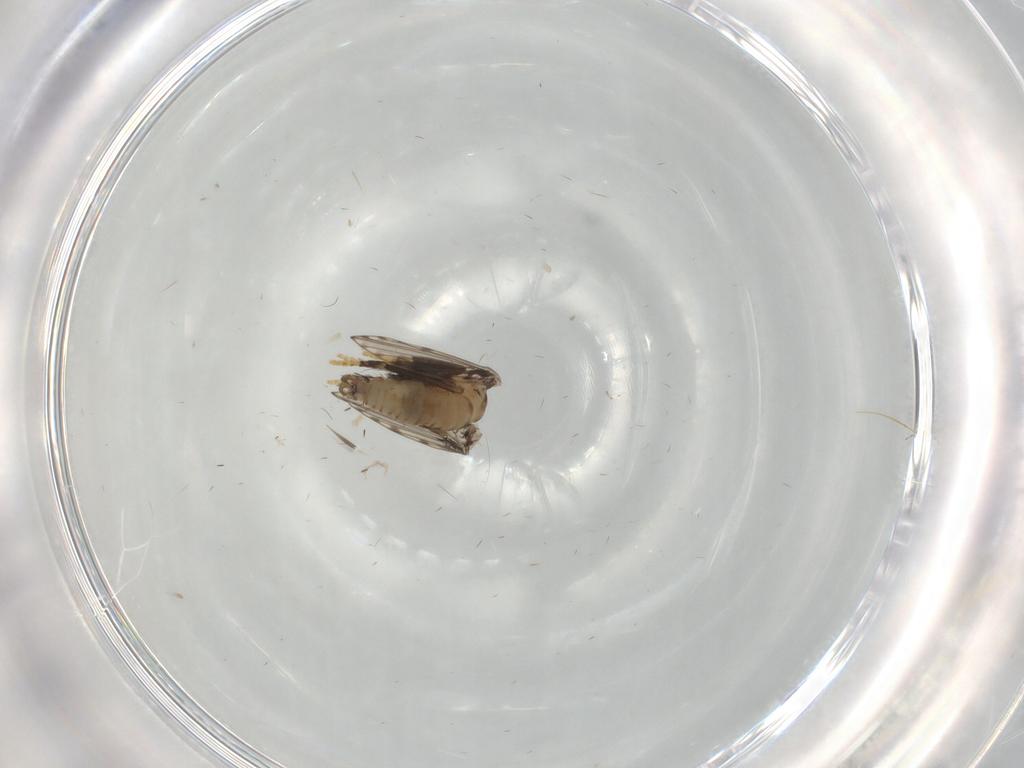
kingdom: Animalia
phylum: Arthropoda
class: Insecta
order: Diptera
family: Psychodidae
